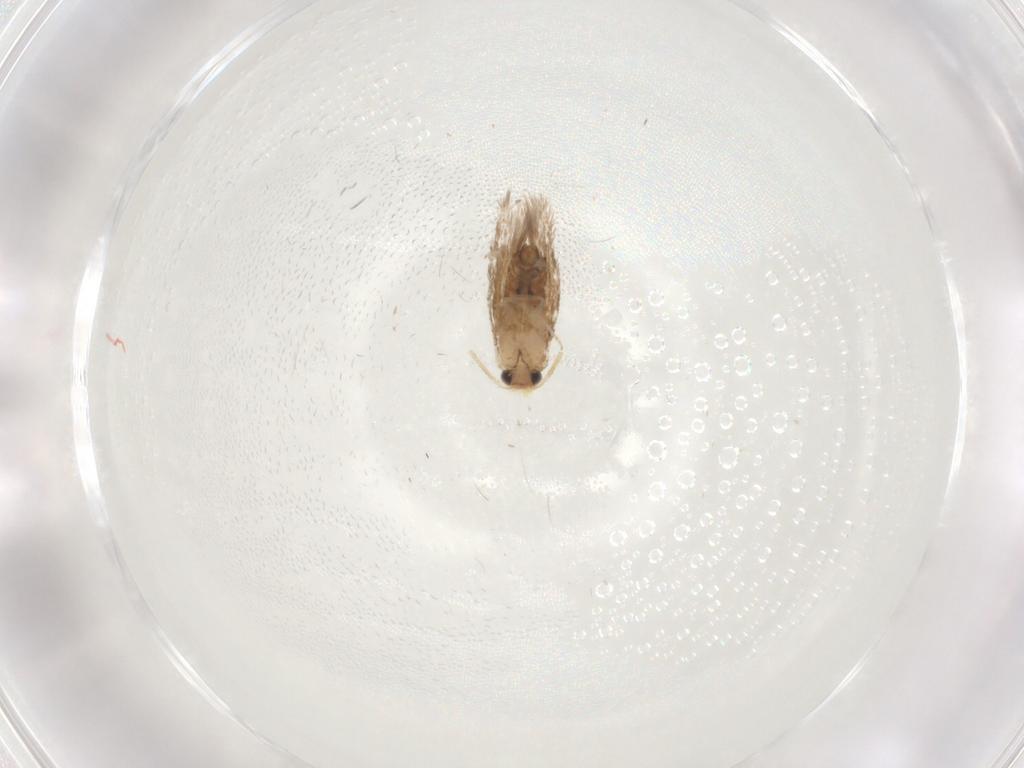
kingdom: Animalia
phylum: Arthropoda
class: Insecta
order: Lepidoptera
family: Nepticulidae
